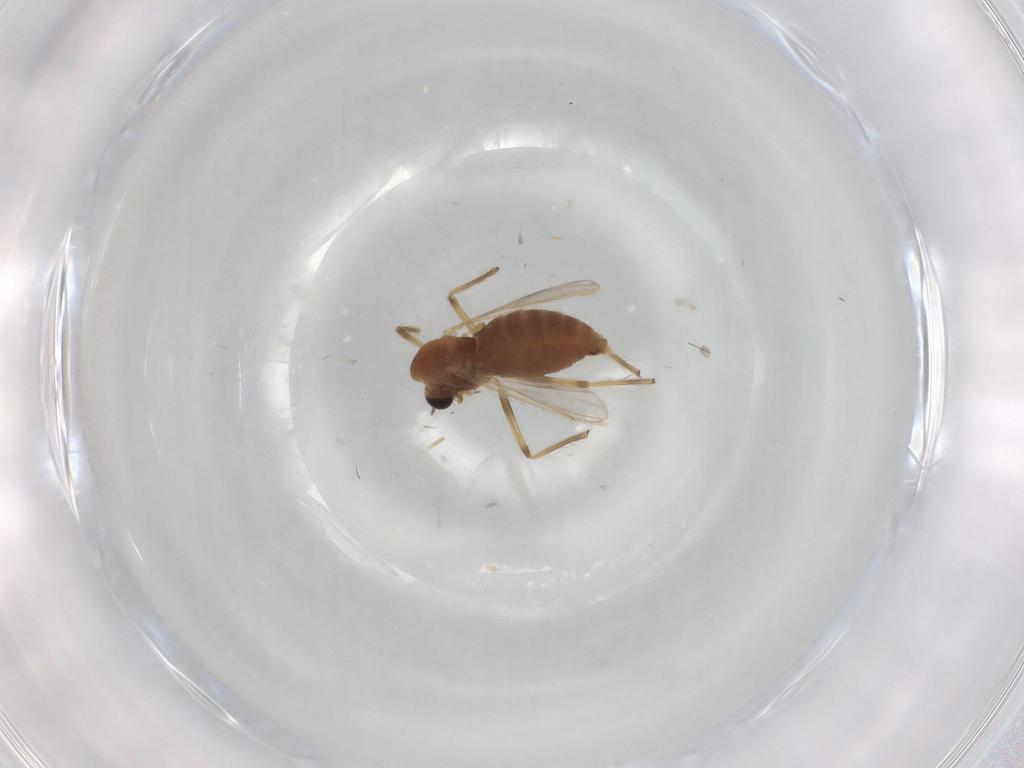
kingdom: Animalia
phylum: Arthropoda
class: Insecta
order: Diptera
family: Chironomidae
